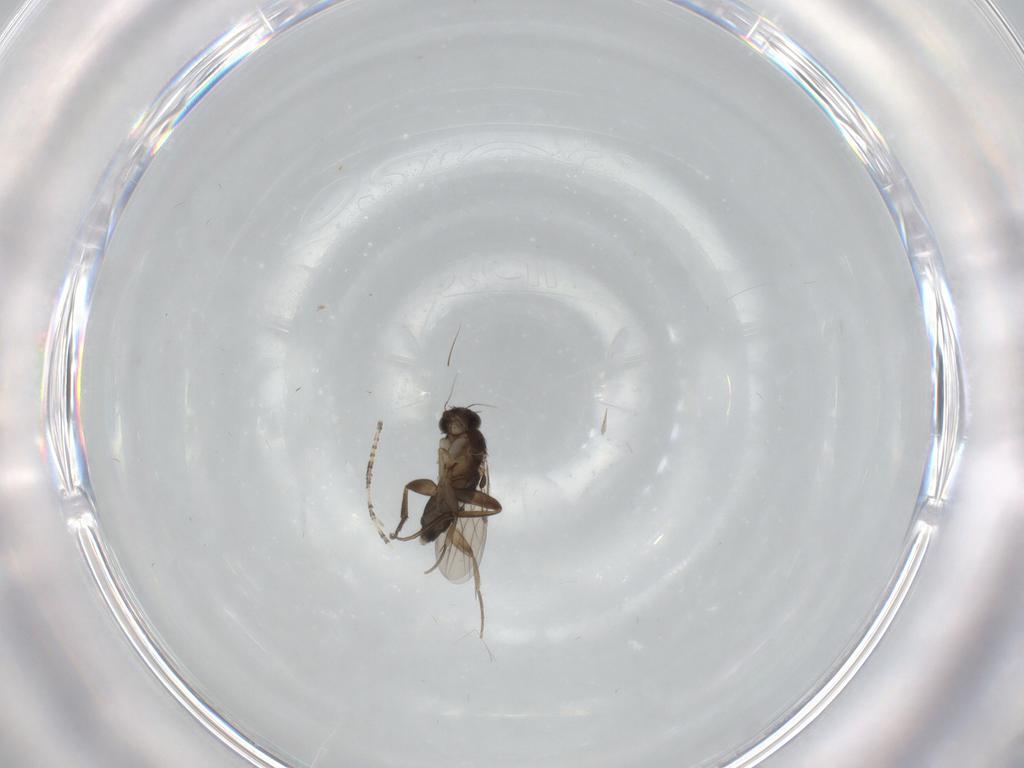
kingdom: Animalia
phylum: Arthropoda
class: Insecta
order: Diptera
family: Phoridae
